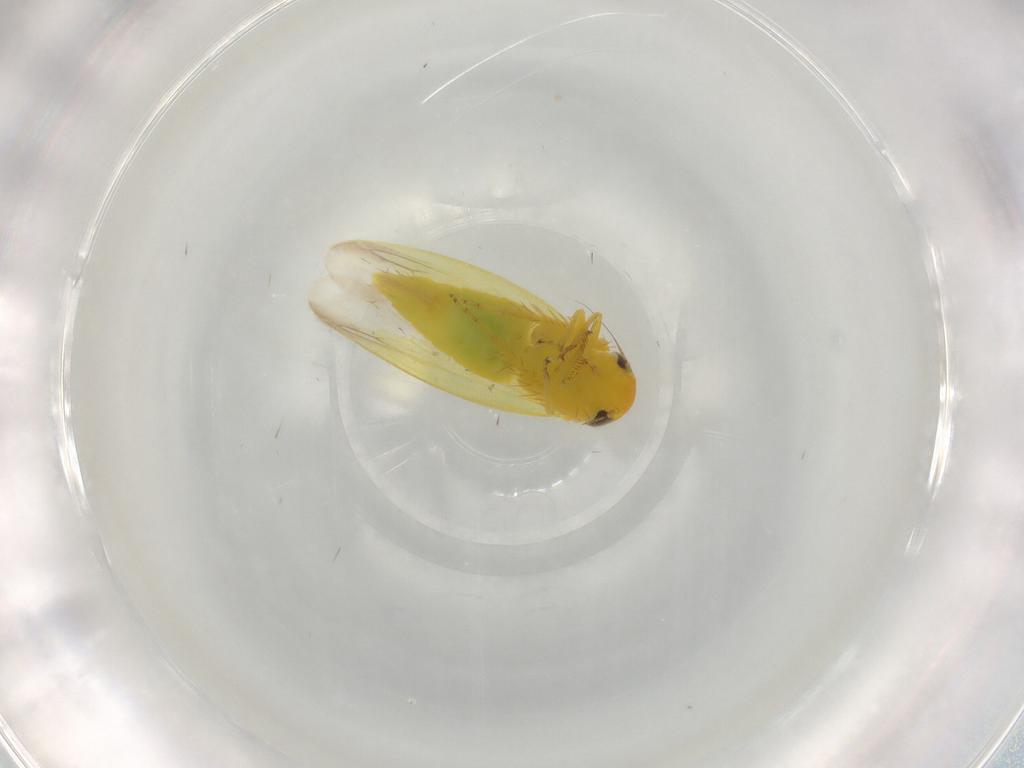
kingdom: Animalia
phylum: Arthropoda
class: Insecta
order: Hemiptera
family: Cicadellidae
